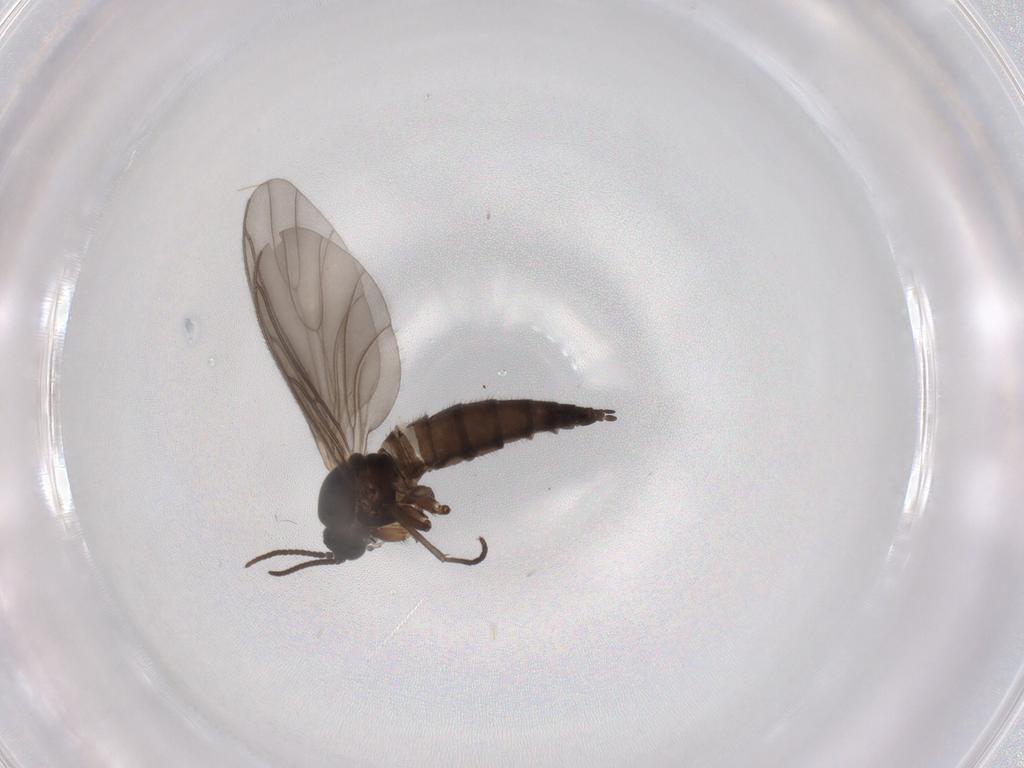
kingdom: Animalia
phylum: Arthropoda
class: Insecta
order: Diptera
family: Sciaridae
